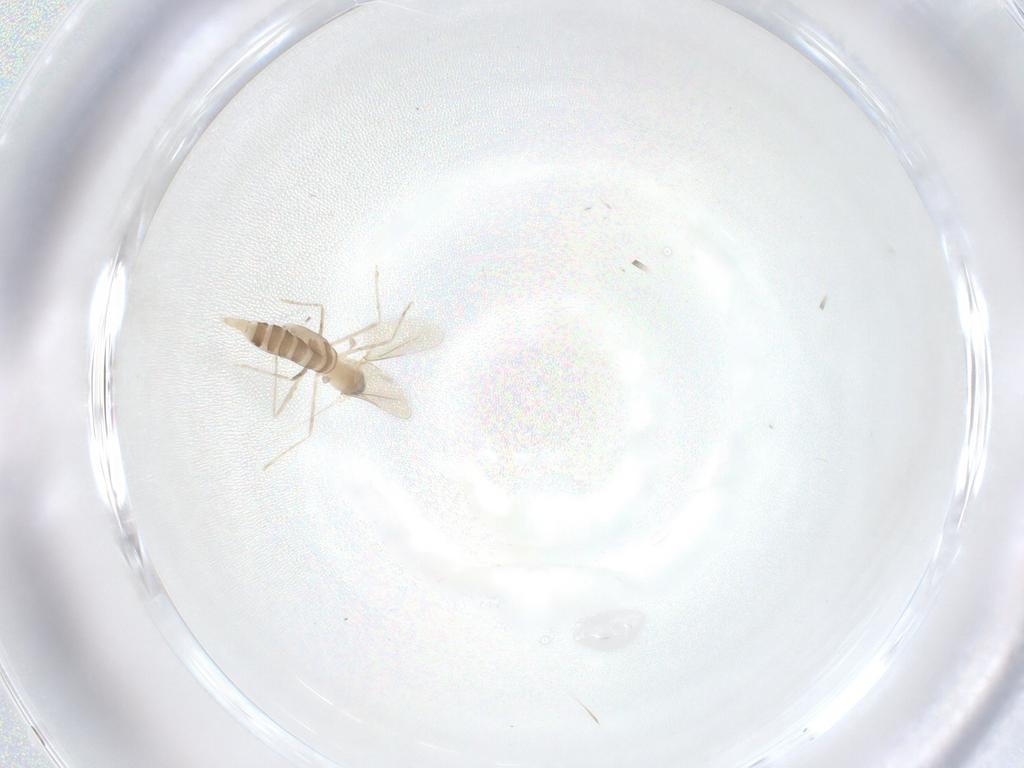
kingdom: Animalia
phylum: Arthropoda
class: Insecta
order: Diptera
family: Cecidomyiidae
